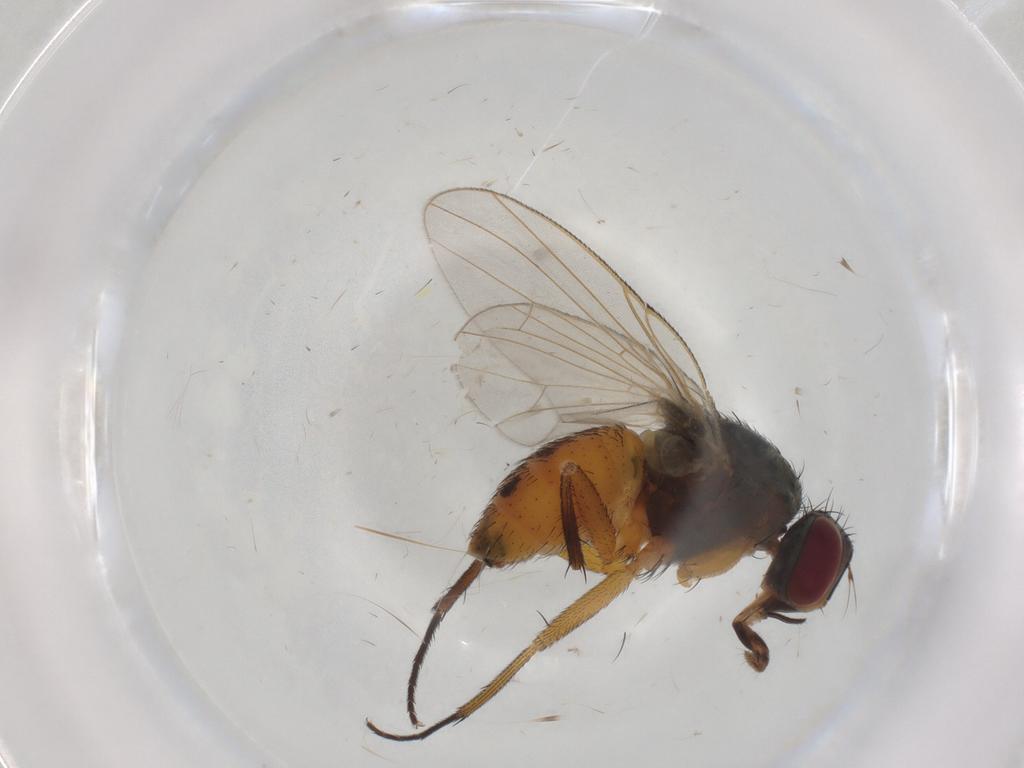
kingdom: Animalia
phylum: Arthropoda
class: Insecta
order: Diptera
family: Muscidae
